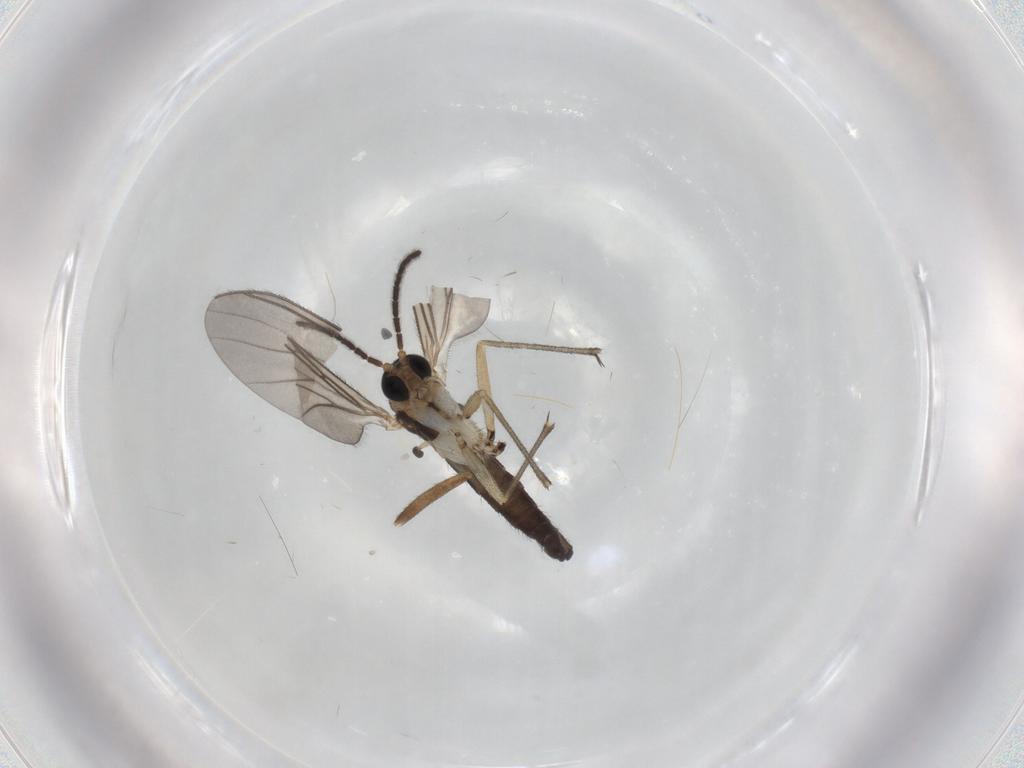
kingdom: Animalia
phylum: Arthropoda
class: Insecta
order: Diptera
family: Sciaridae
